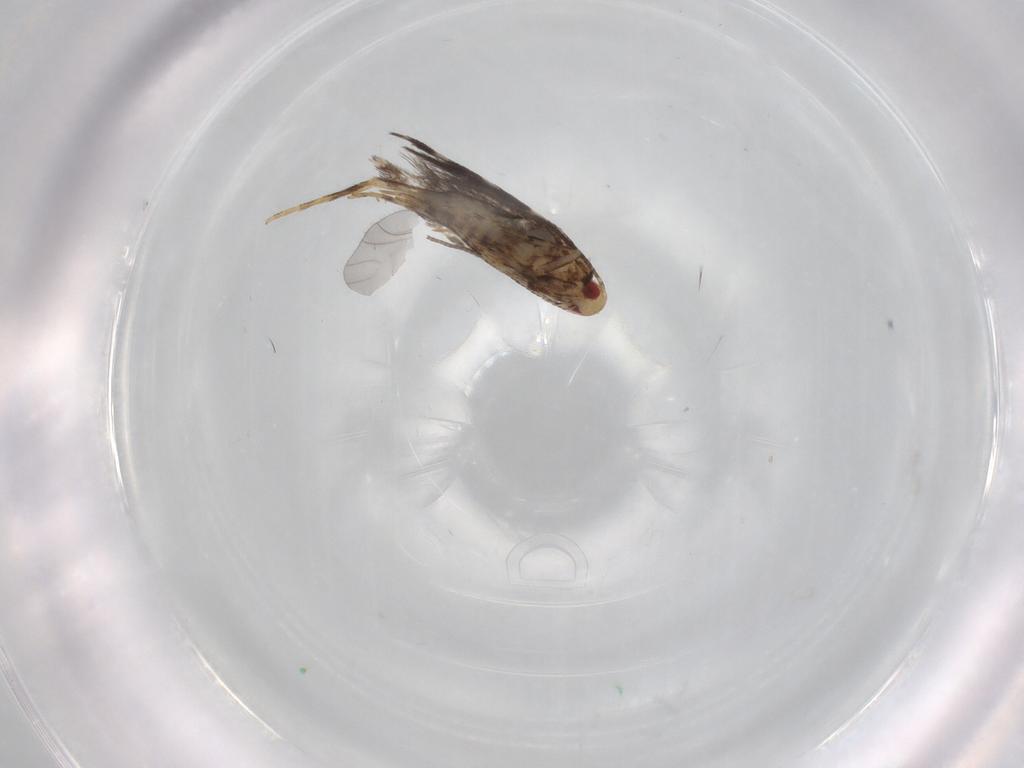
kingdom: Animalia
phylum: Arthropoda
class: Insecta
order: Lepidoptera
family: Gracillariidae
